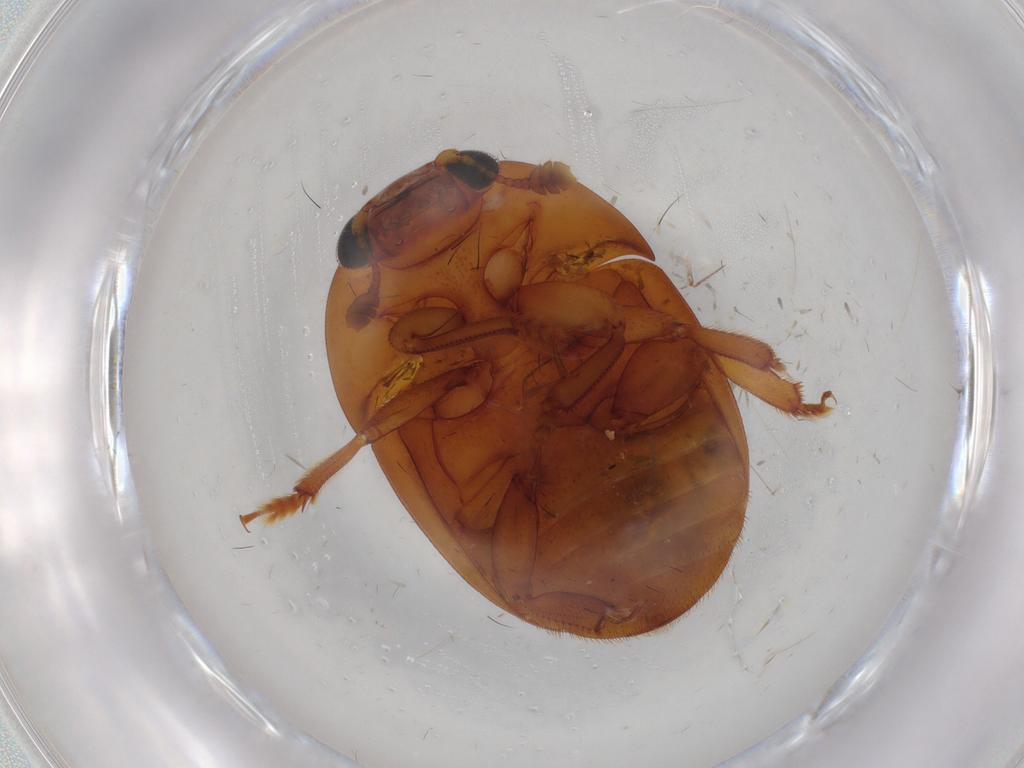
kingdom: Animalia
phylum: Arthropoda
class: Insecta
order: Coleoptera
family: Nitidulidae
